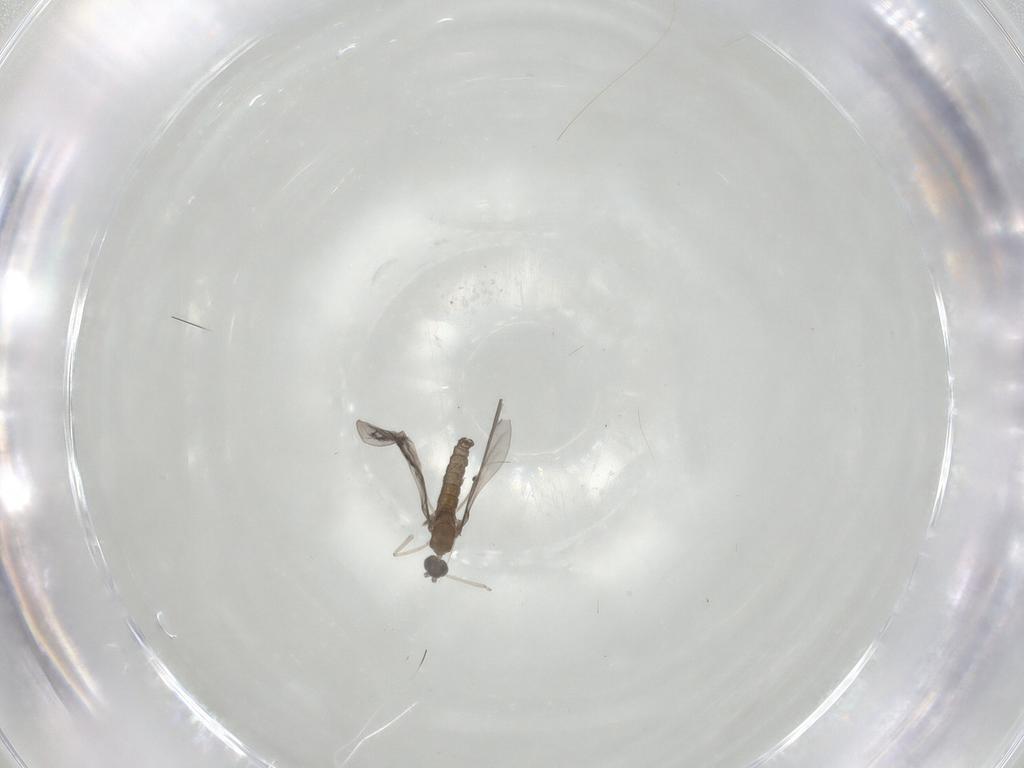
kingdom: Animalia
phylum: Arthropoda
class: Insecta
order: Diptera
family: Cecidomyiidae
